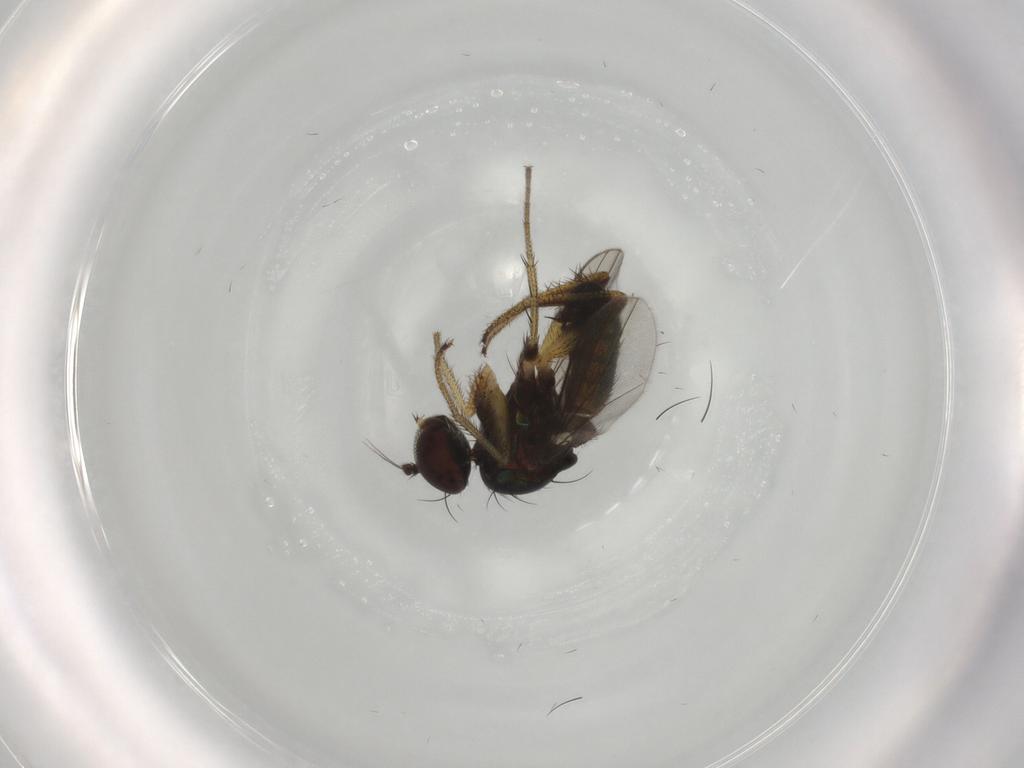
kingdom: Animalia
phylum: Arthropoda
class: Insecta
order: Diptera
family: Dolichopodidae
